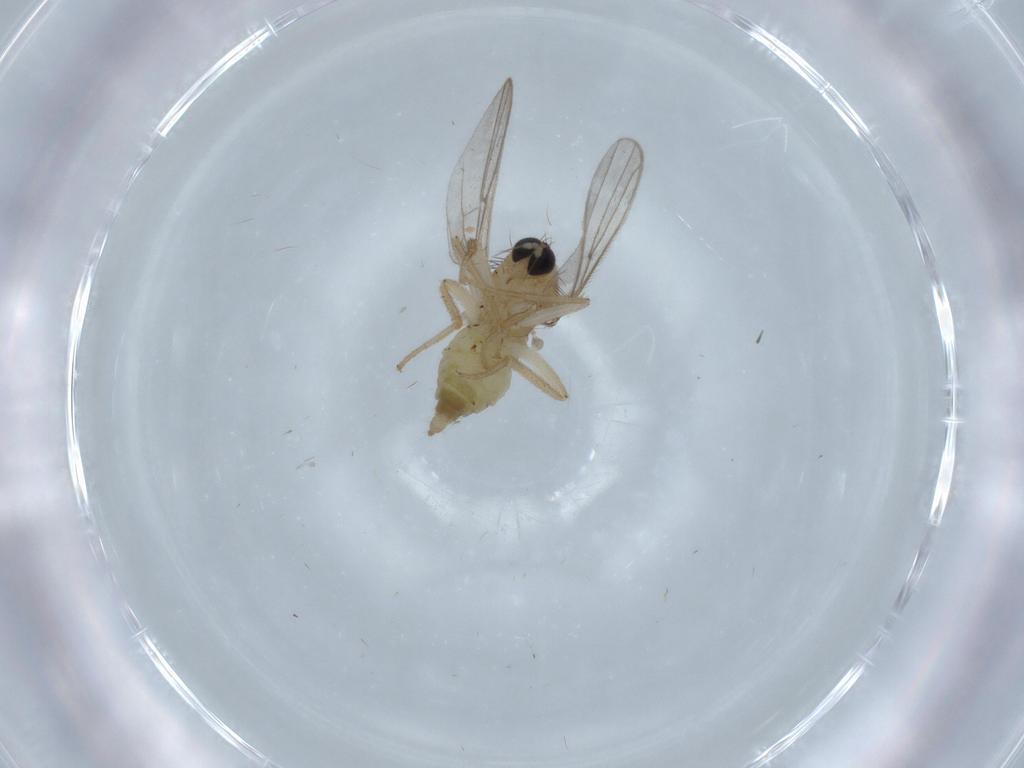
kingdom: Animalia
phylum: Arthropoda
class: Insecta
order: Diptera
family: Hybotidae
